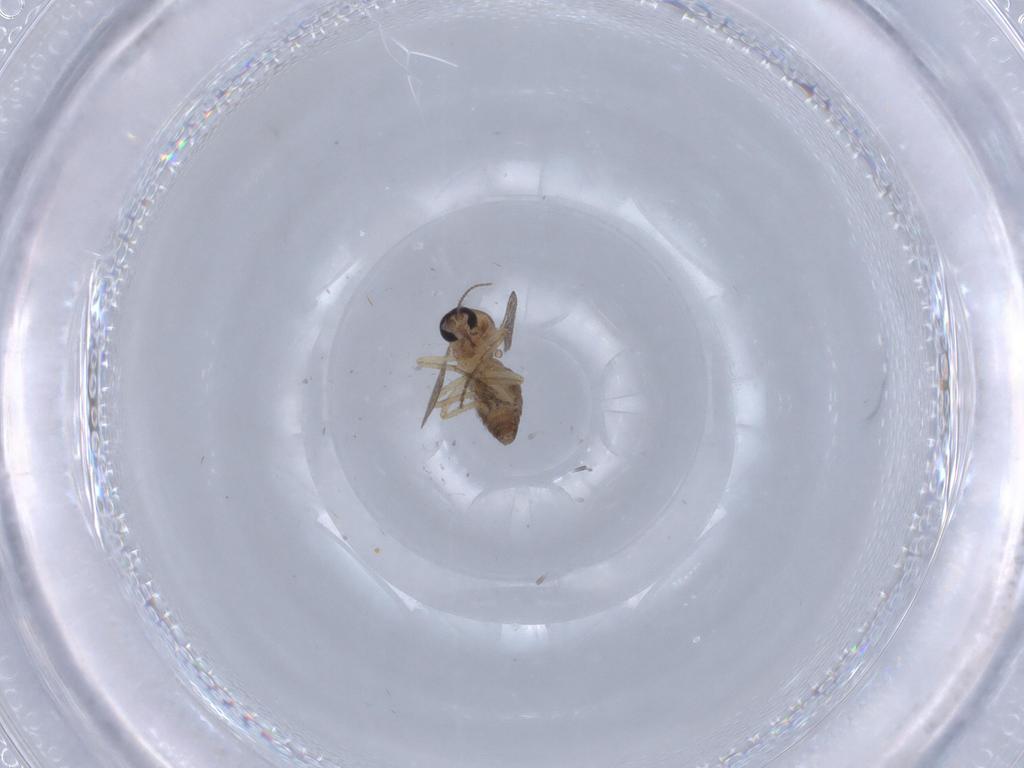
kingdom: Animalia
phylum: Arthropoda
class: Insecta
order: Diptera
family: Ceratopogonidae
